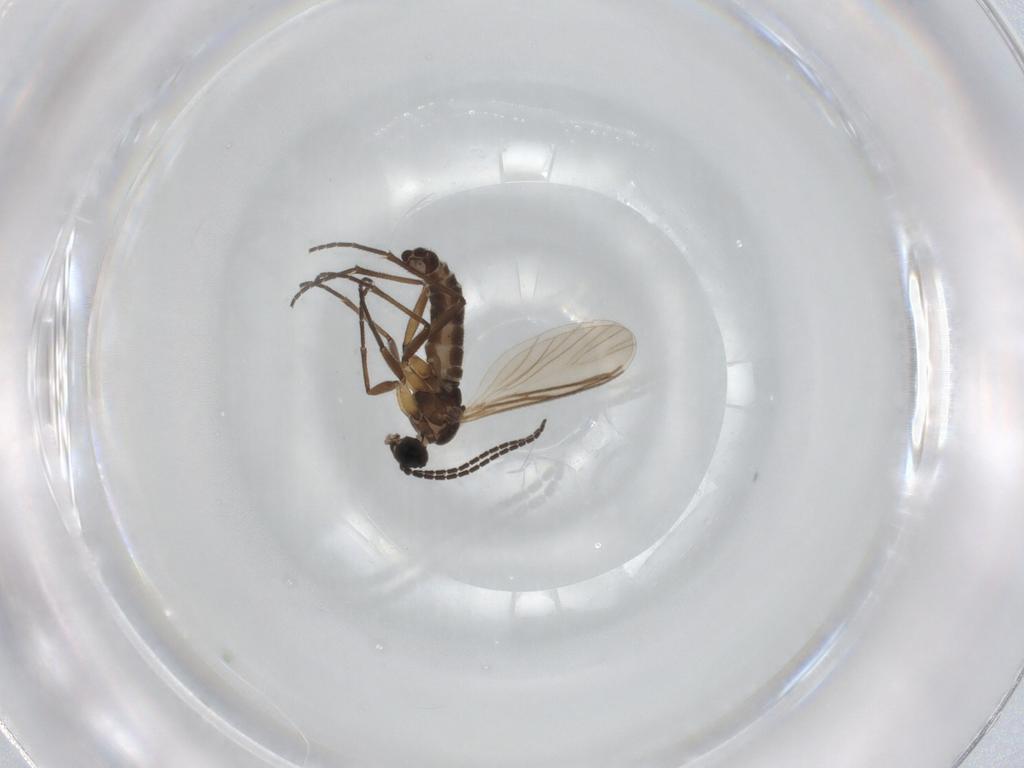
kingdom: Animalia
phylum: Arthropoda
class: Insecta
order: Diptera
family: Sciaridae
